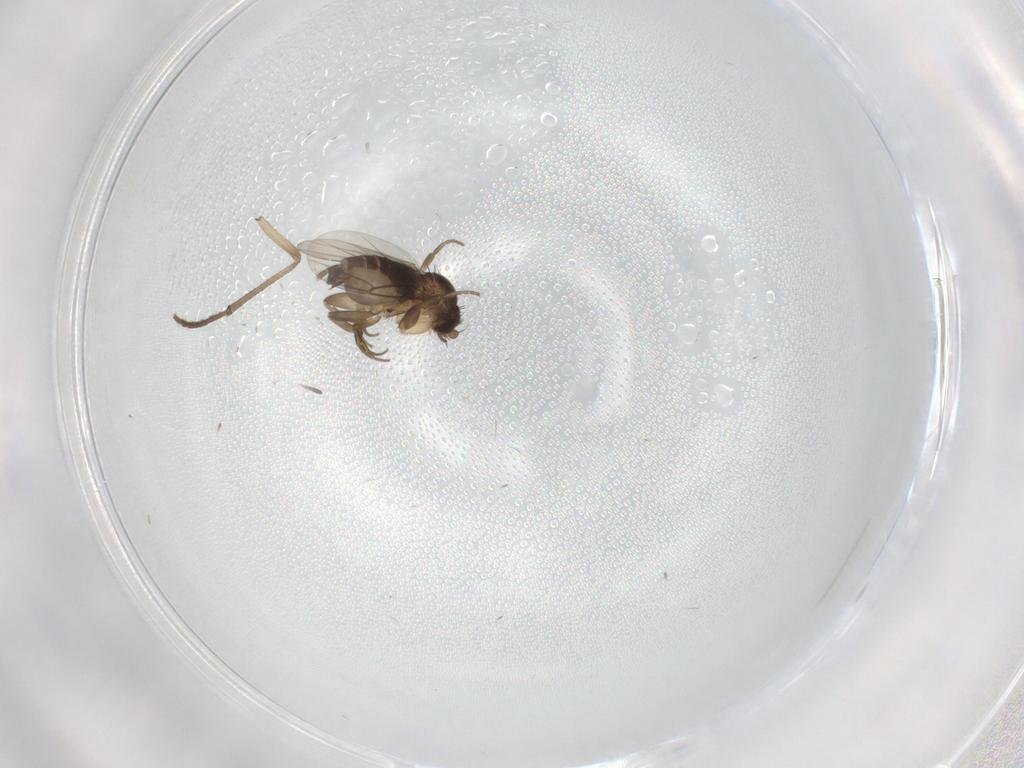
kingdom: Animalia
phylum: Arthropoda
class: Insecta
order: Diptera
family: Psychodidae
